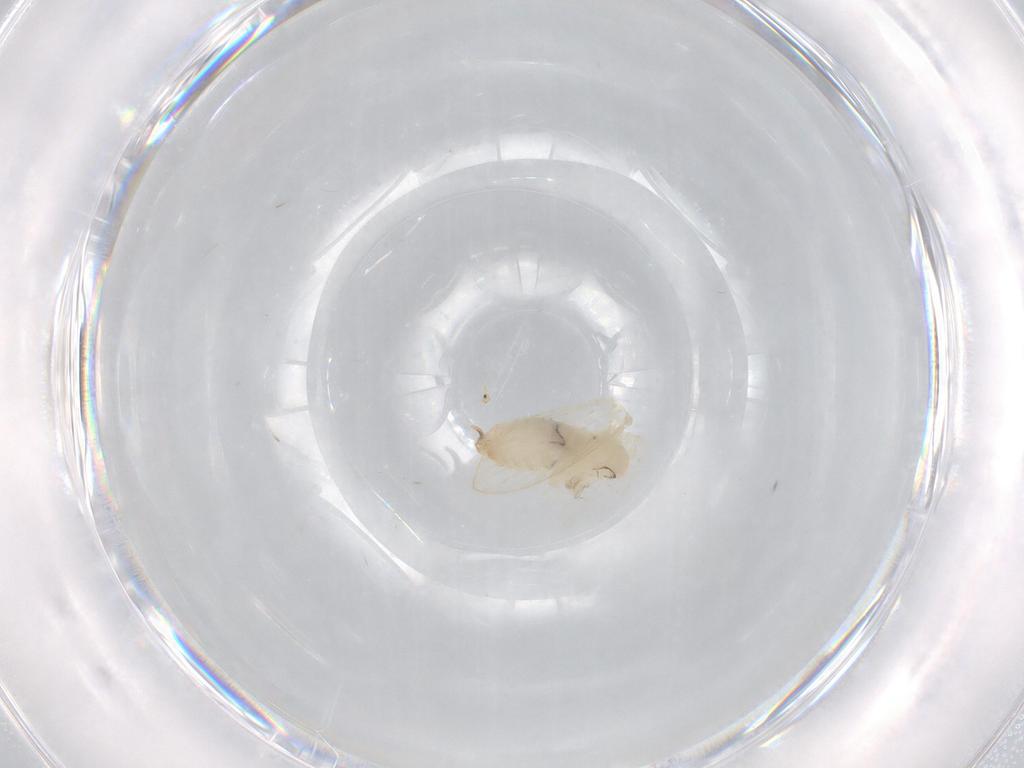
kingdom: Animalia
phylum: Arthropoda
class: Insecta
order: Diptera
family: Psychodidae
